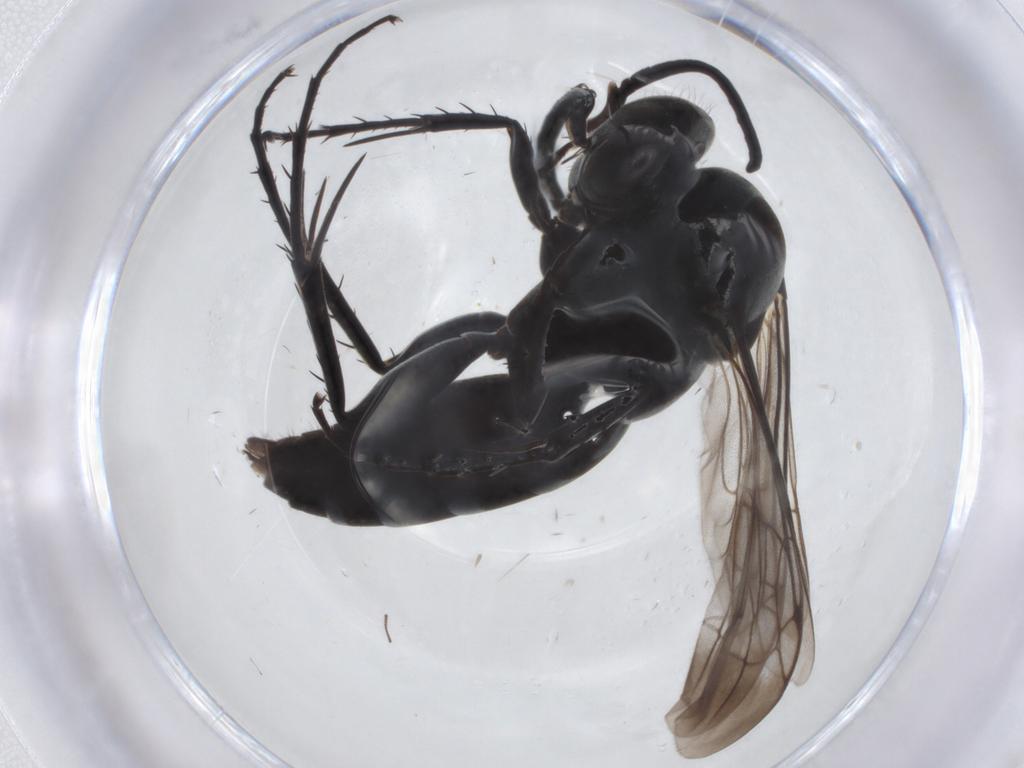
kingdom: Animalia
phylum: Arthropoda
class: Insecta
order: Hymenoptera
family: Pompilidae
